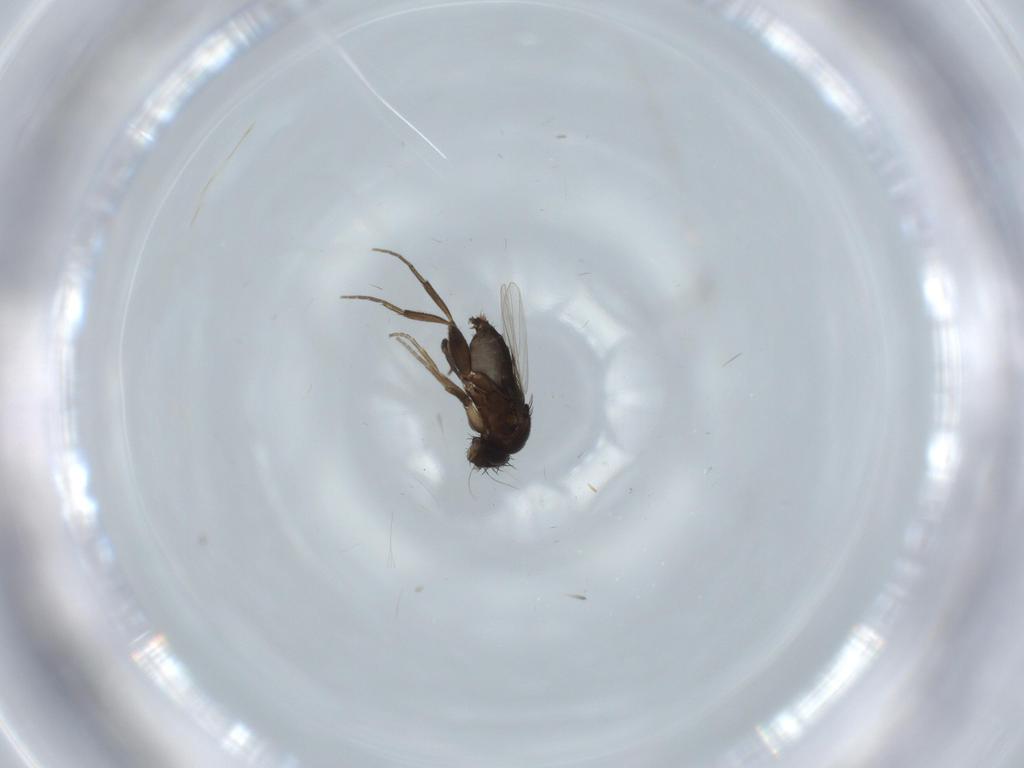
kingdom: Animalia
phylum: Arthropoda
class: Insecta
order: Diptera
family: Phoridae
